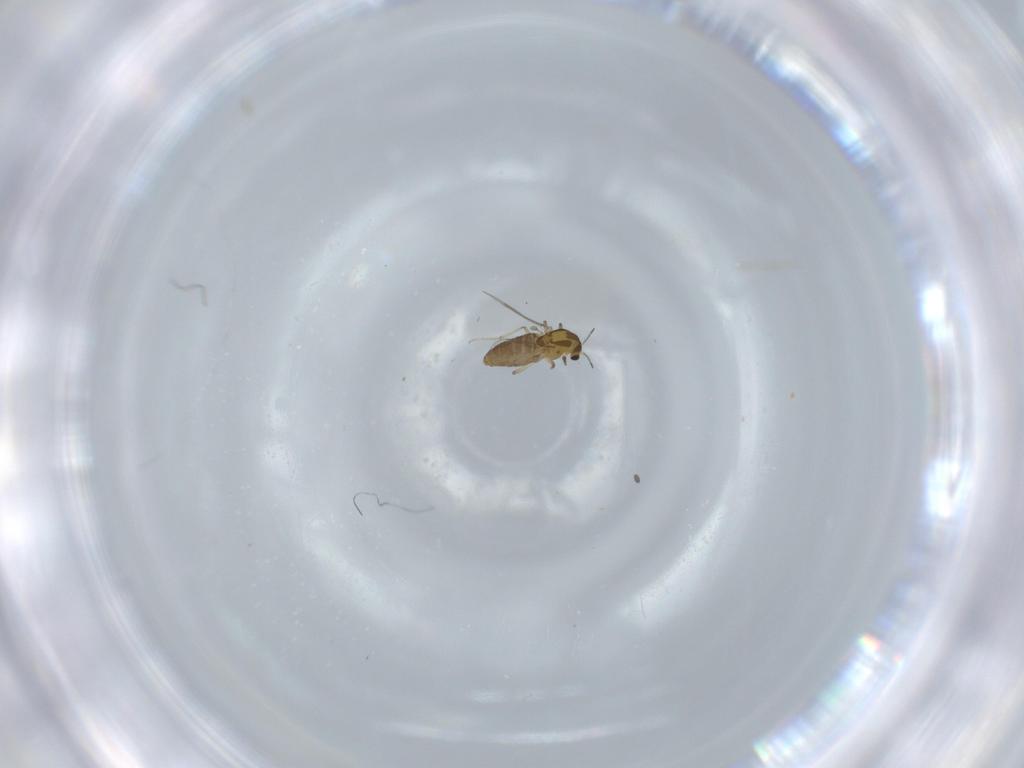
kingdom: Animalia
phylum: Arthropoda
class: Insecta
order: Diptera
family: Chironomidae
